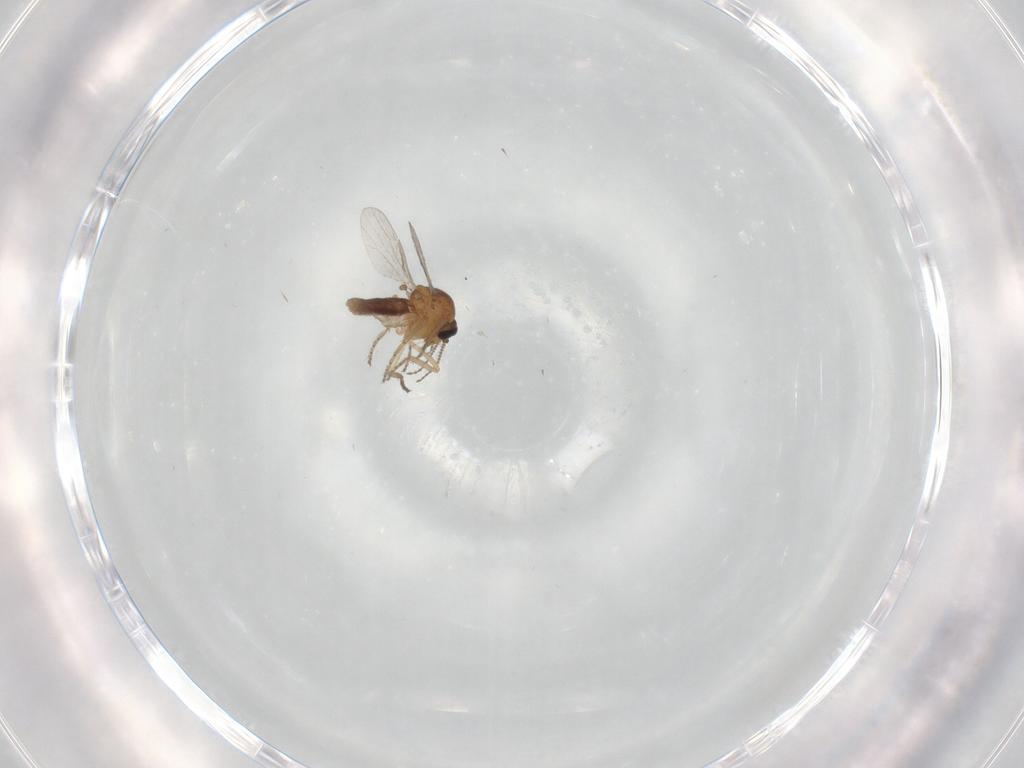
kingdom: Animalia
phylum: Arthropoda
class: Insecta
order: Diptera
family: Ceratopogonidae
